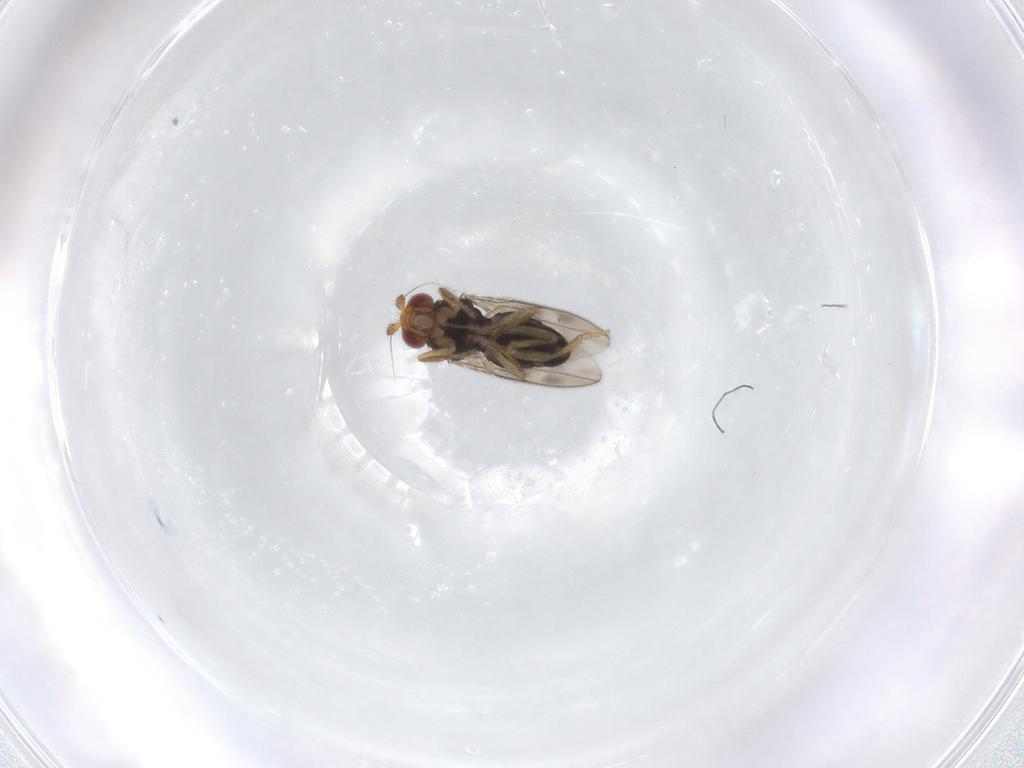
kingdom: Animalia
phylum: Arthropoda
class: Insecta
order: Diptera
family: Sphaeroceridae
